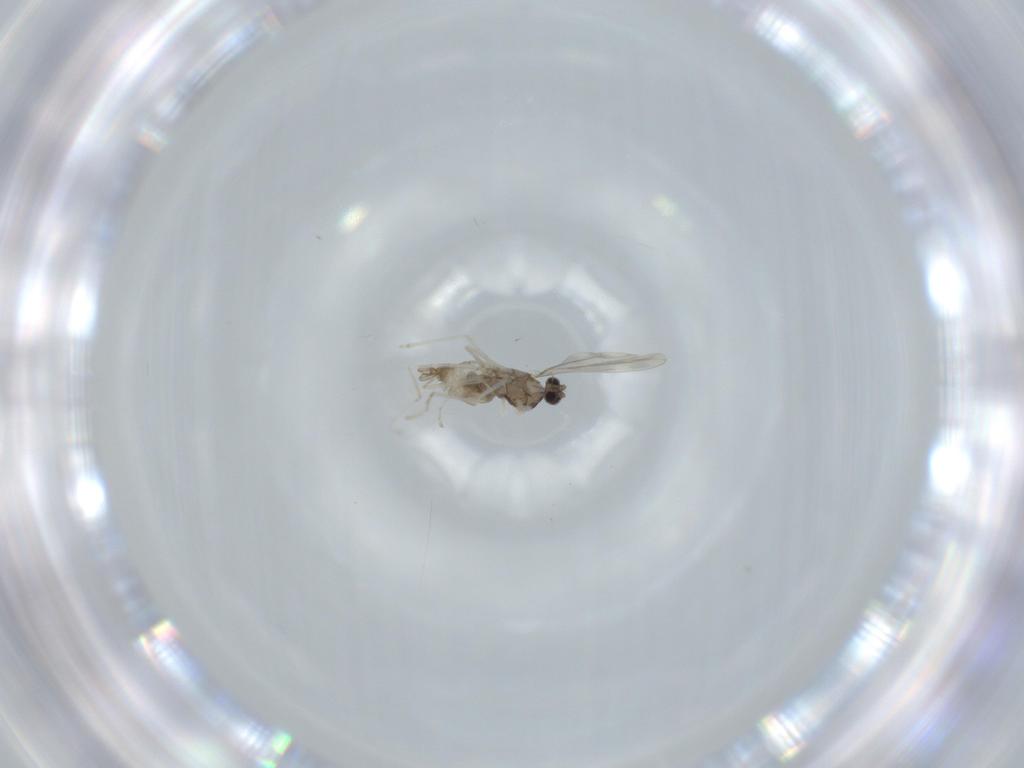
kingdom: Animalia
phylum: Arthropoda
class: Insecta
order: Diptera
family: Cecidomyiidae
